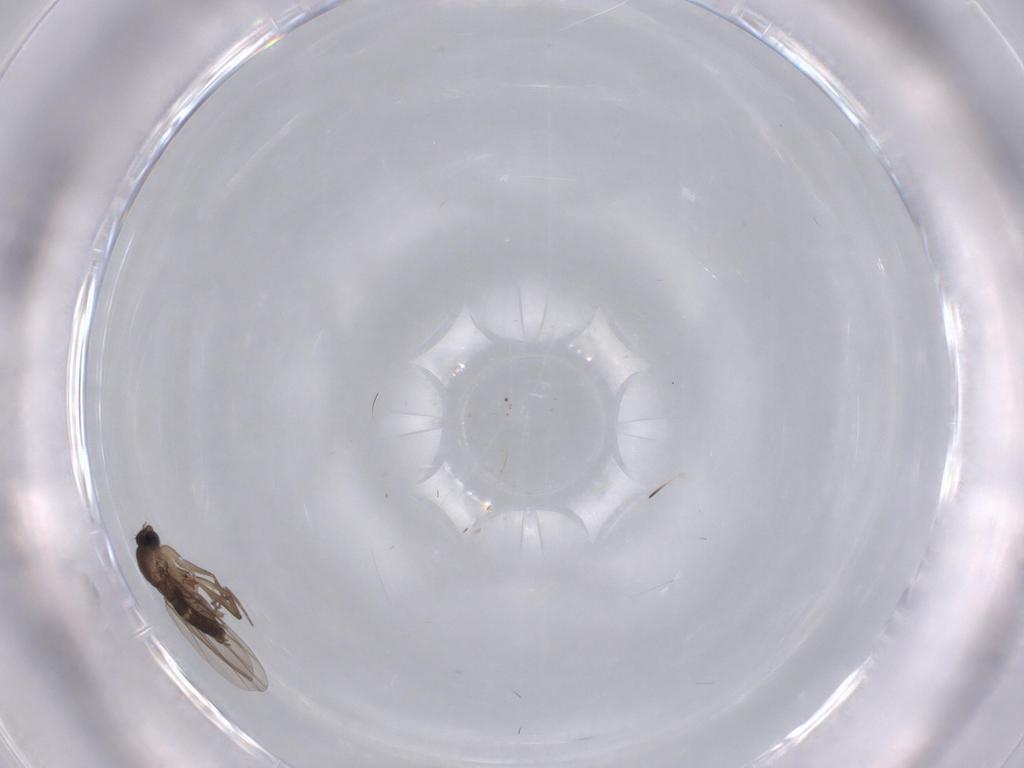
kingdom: Animalia
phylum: Arthropoda
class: Insecta
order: Diptera
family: Phoridae
